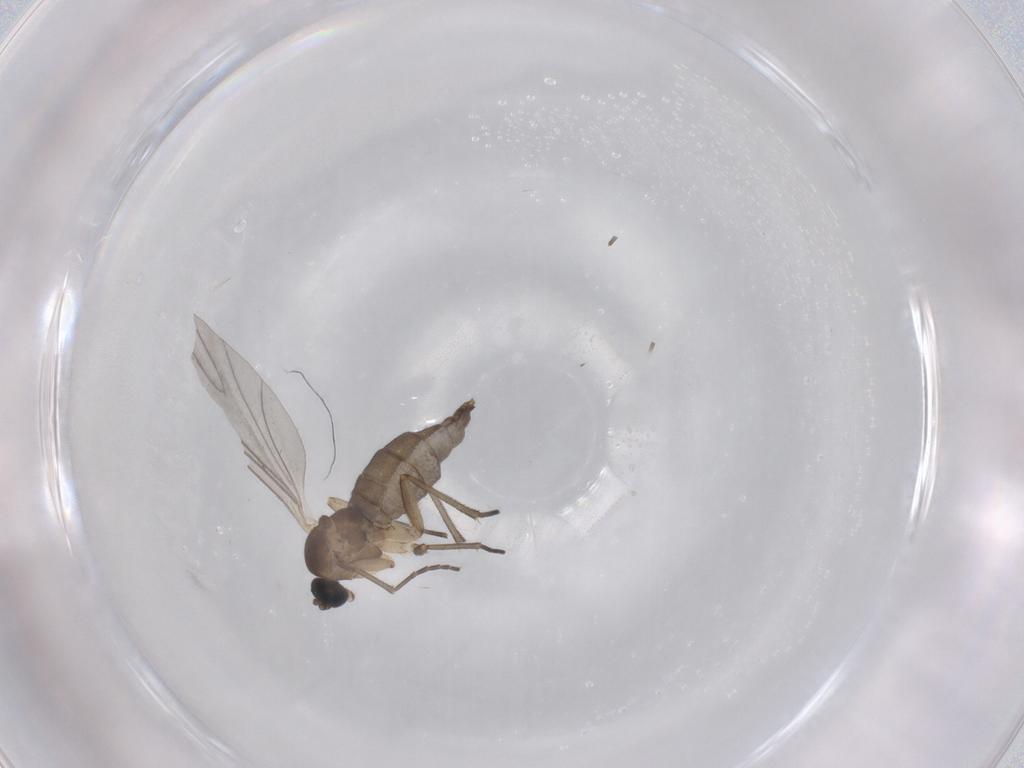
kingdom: Animalia
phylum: Arthropoda
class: Insecta
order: Diptera
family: Sciaridae
